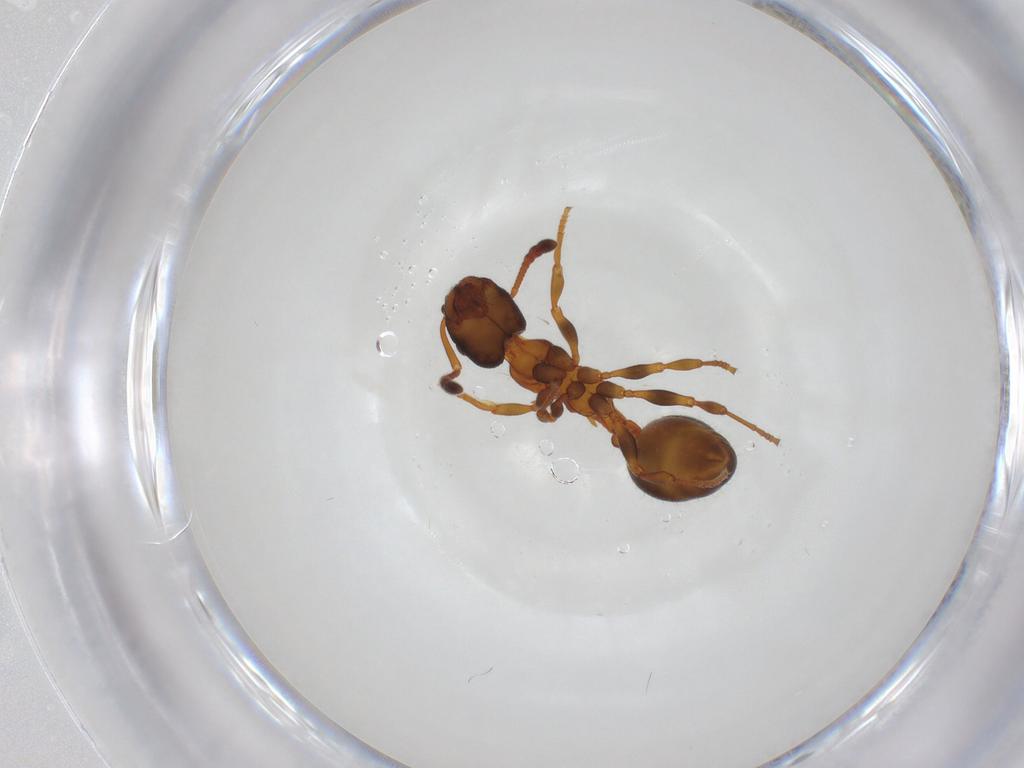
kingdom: Animalia
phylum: Arthropoda
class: Insecta
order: Hymenoptera
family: Formicidae
